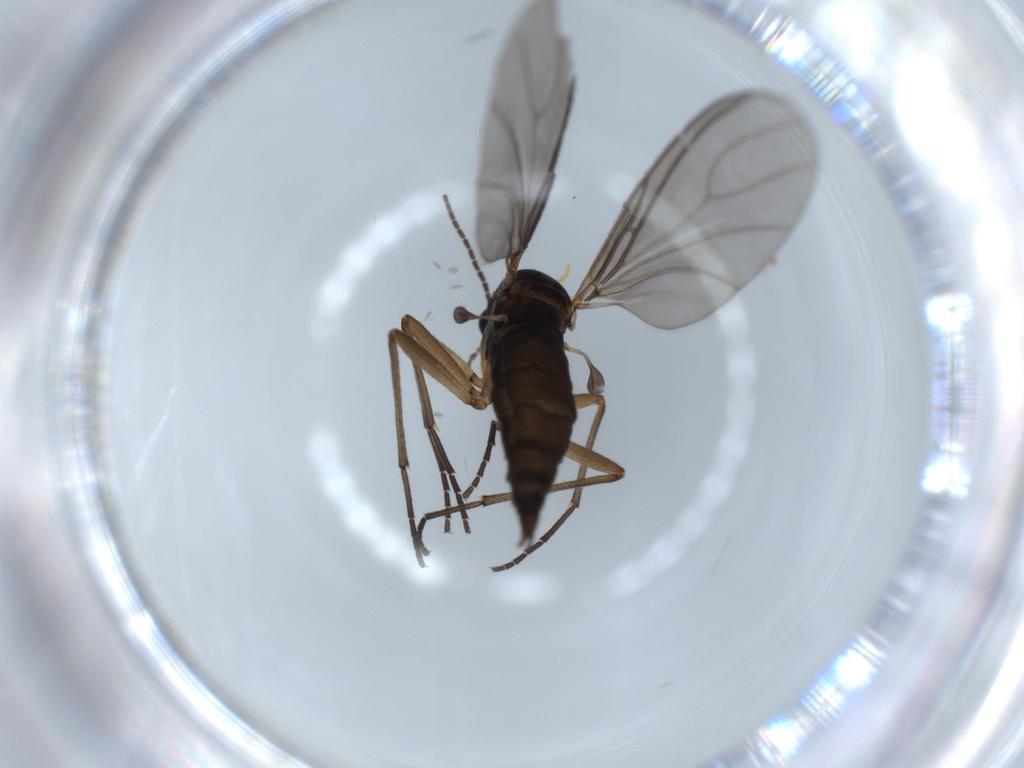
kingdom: Animalia
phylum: Arthropoda
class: Insecta
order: Diptera
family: Sciaridae
